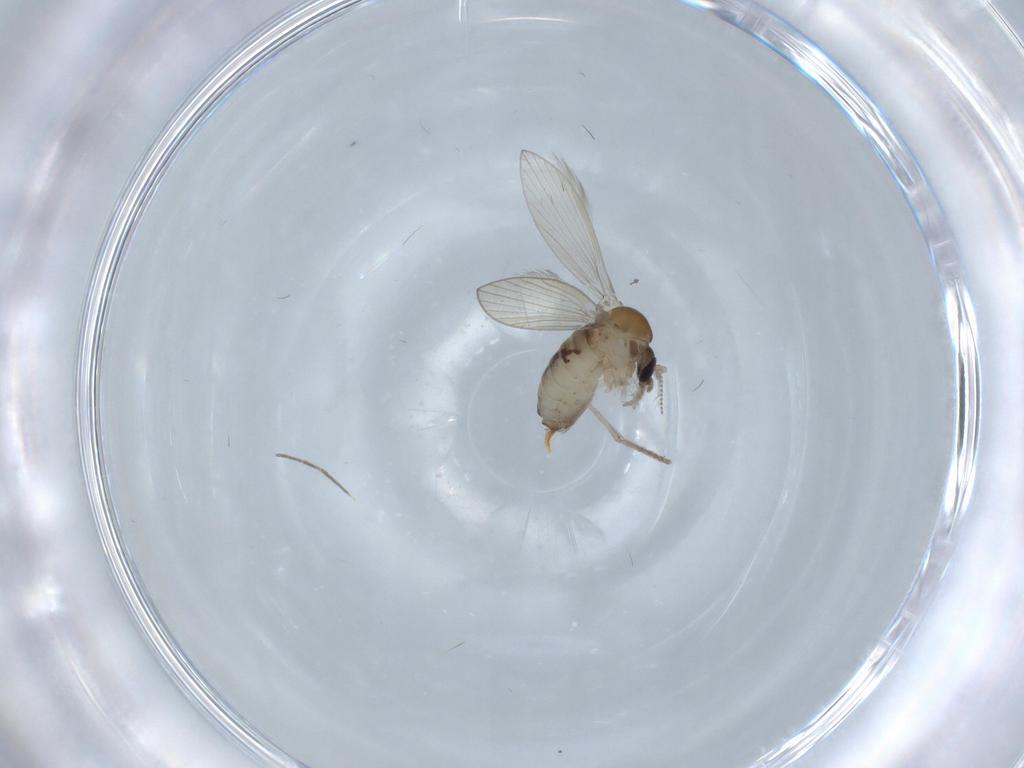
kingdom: Animalia
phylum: Arthropoda
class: Insecta
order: Diptera
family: Psychodidae
